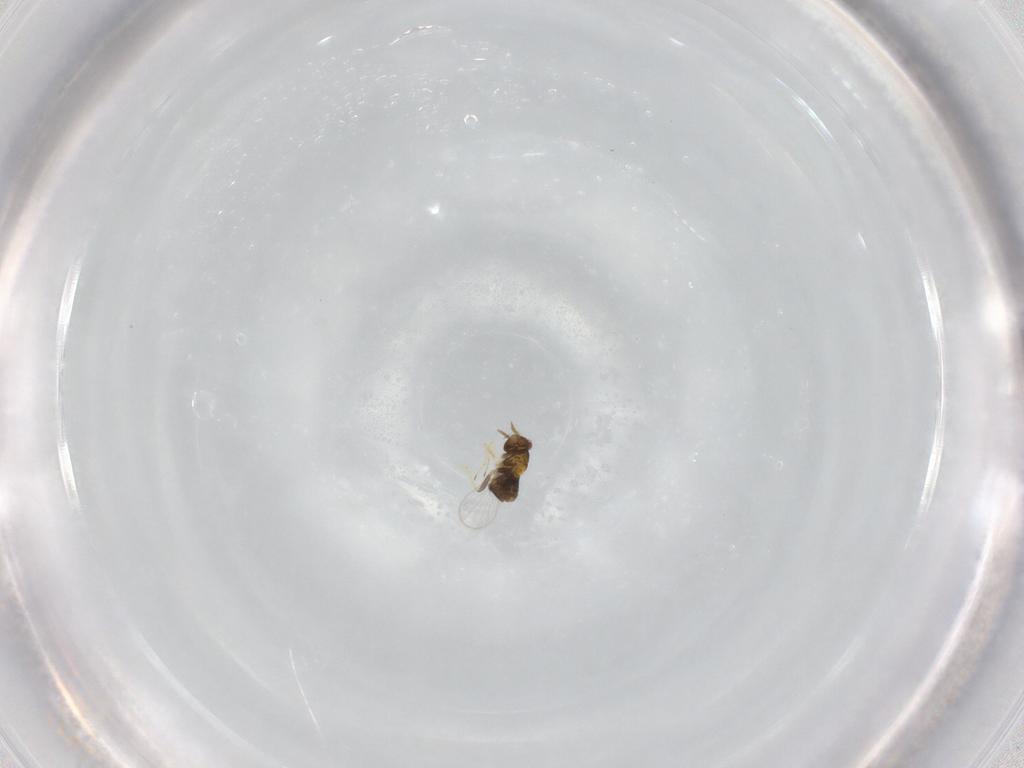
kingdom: Animalia
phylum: Arthropoda
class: Insecta
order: Hymenoptera
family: Trichogrammatidae
